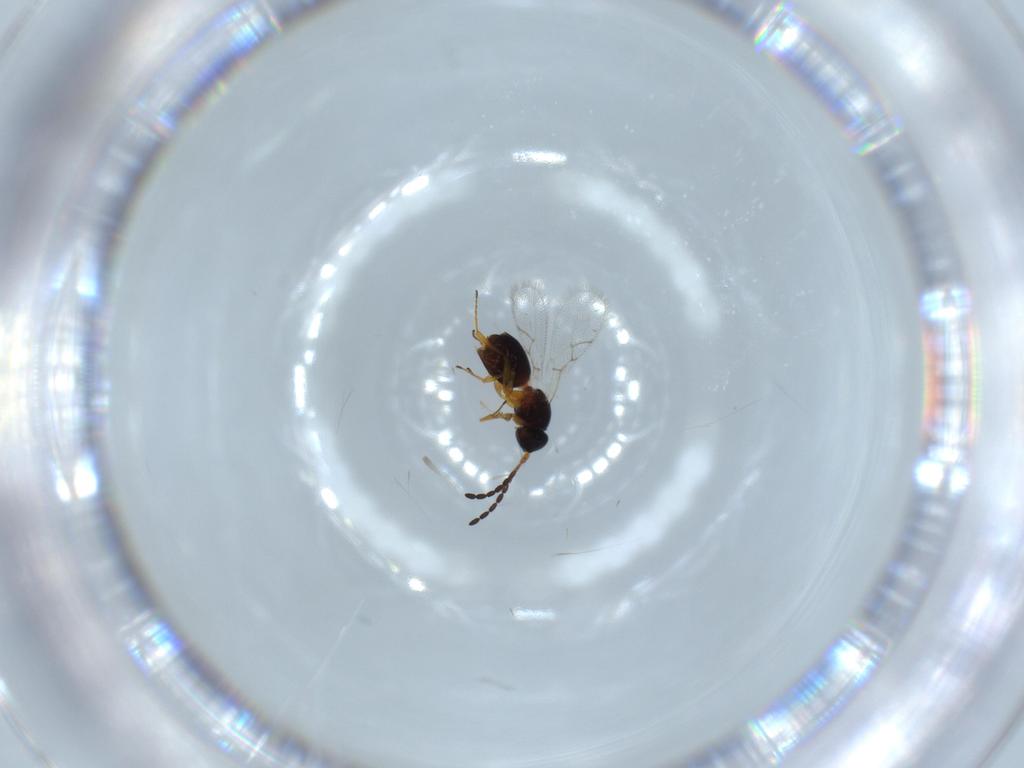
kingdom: Animalia
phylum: Arthropoda
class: Insecta
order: Hymenoptera
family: Figitidae
